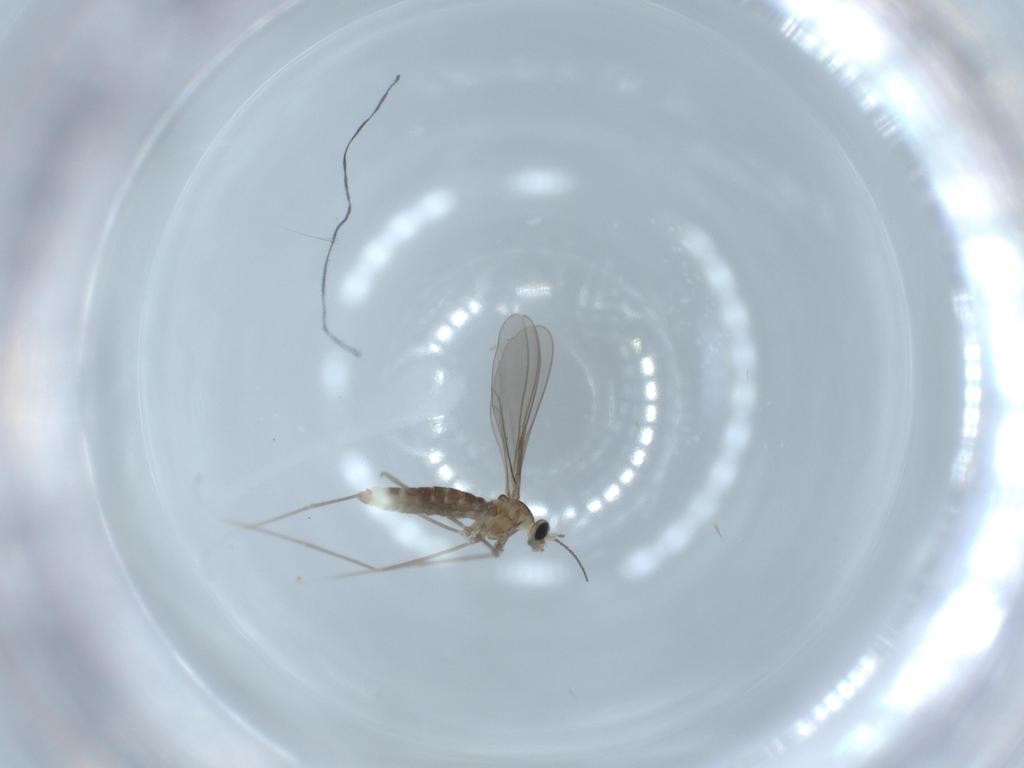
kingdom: Animalia
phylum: Arthropoda
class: Insecta
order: Diptera
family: Cecidomyiidae
